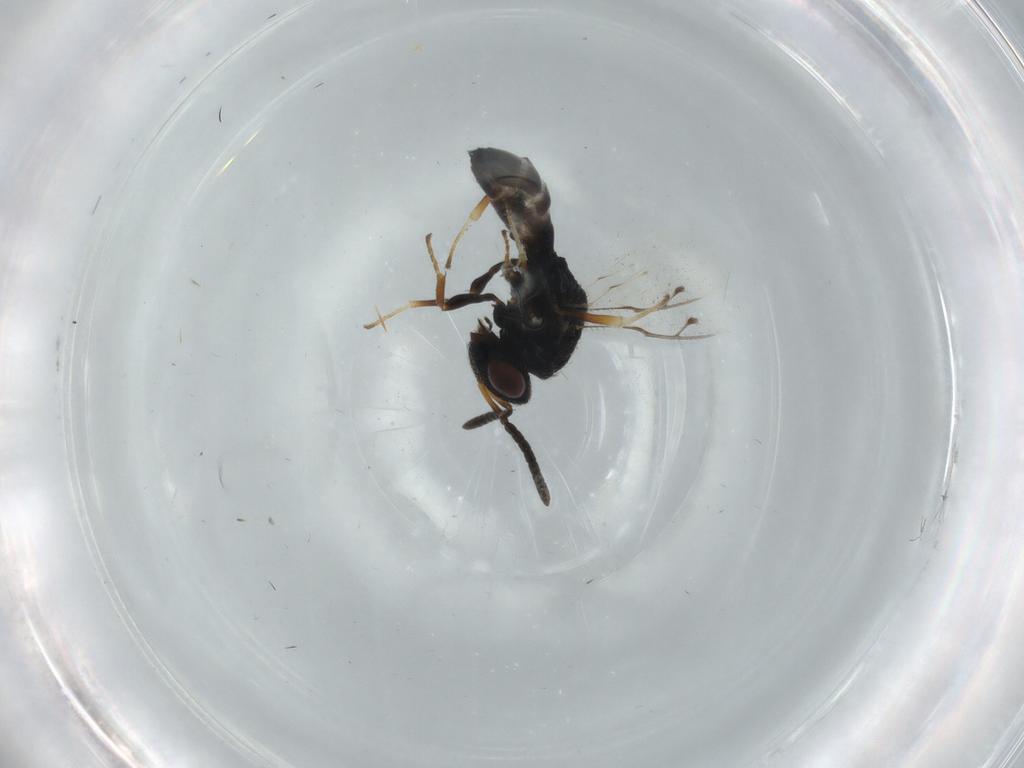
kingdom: Animalia
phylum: Arthropoda
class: Insecta
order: Hymenoptera
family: Pteromalidae
